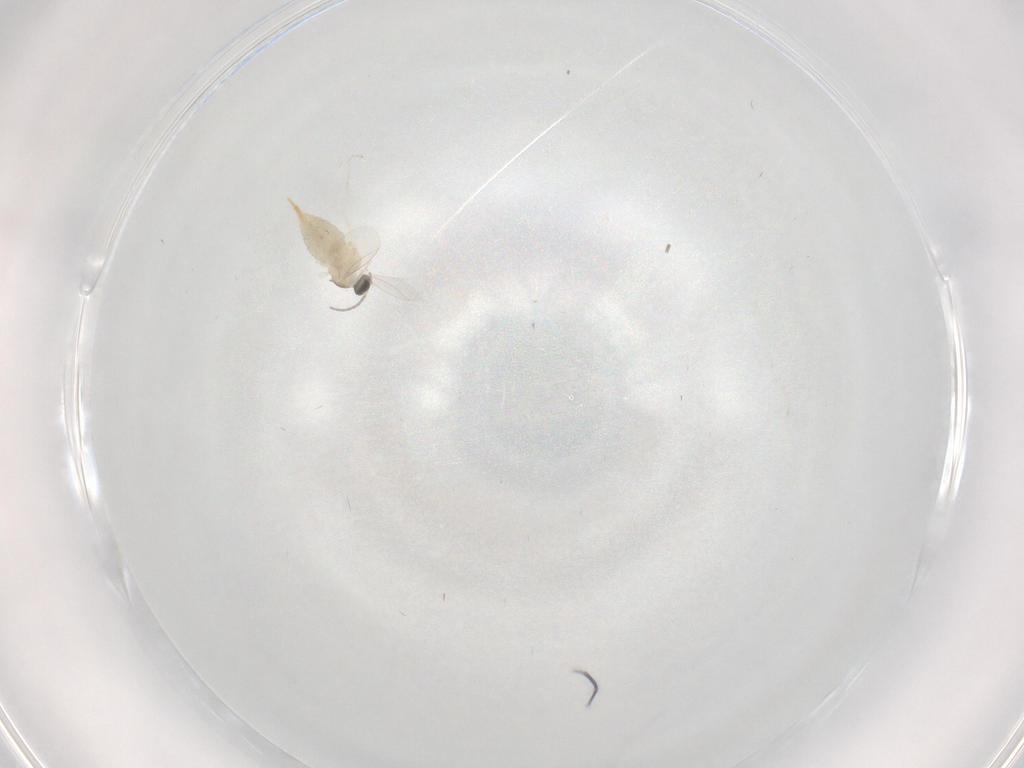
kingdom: Animalia
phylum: Arthropoda
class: Insecta
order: Diptera
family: Cecidomyiidae
